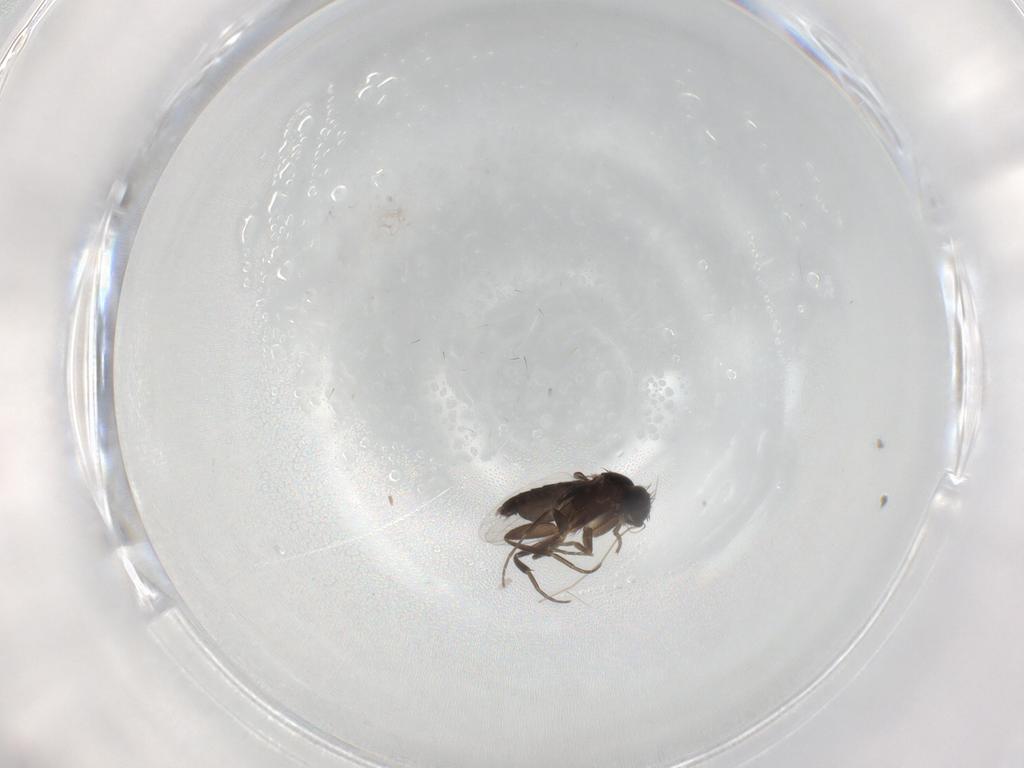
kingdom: Animalia
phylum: Arthropoda
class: Insecta
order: Diptera
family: Phoridae
